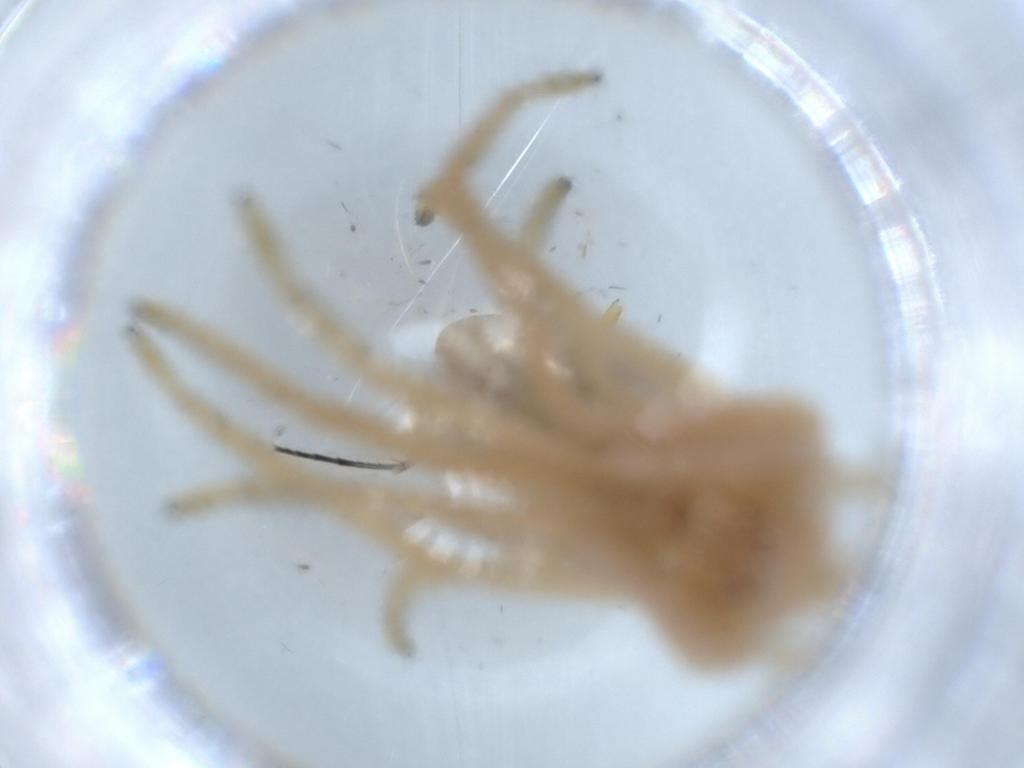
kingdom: Animalia
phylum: Arthropoda
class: Arachnida
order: Araneae
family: Philodromidae
